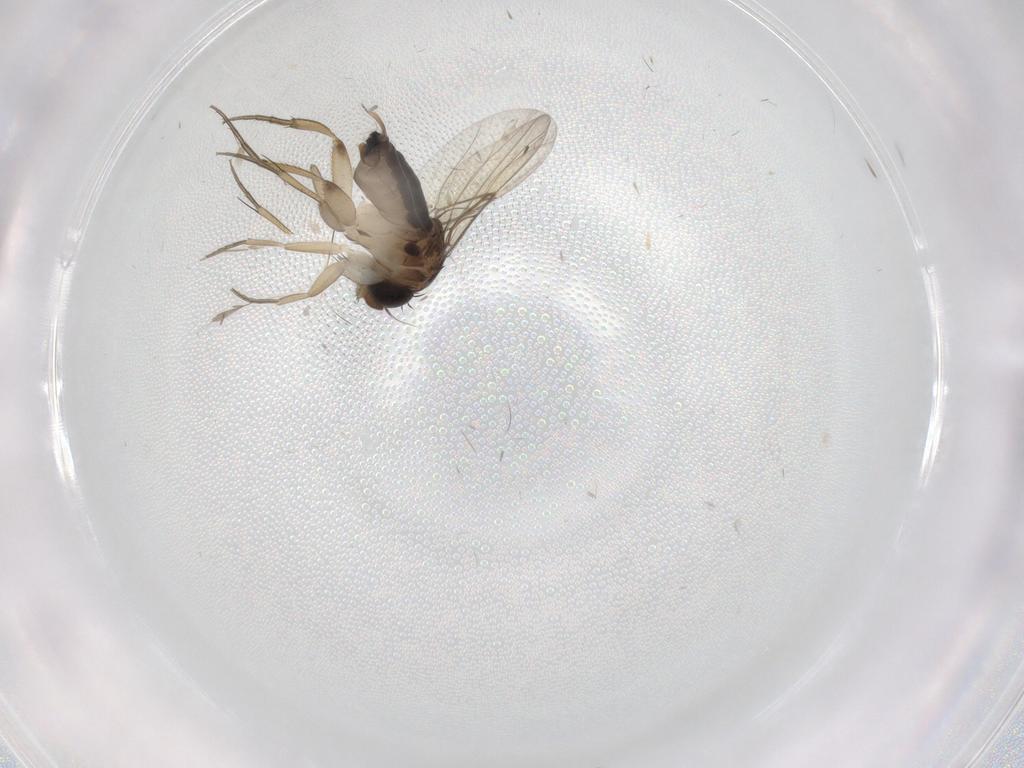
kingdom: Animalia
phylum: Arthropoda
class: Insecta
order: Diptera
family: Phoridae
